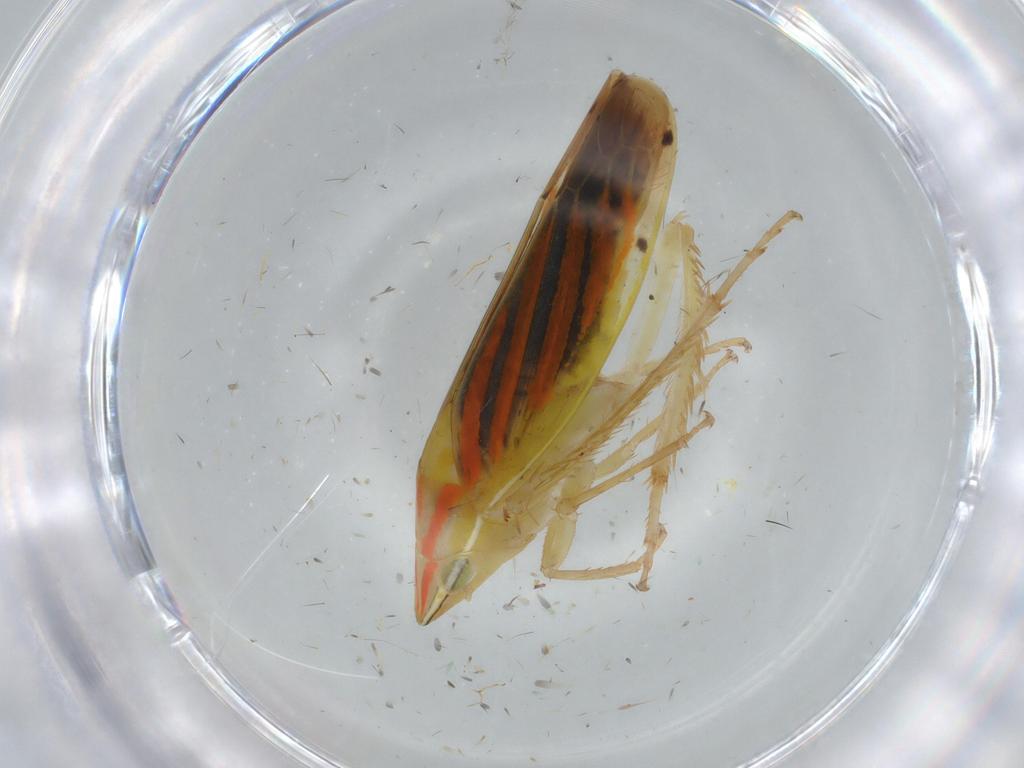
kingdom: Animalia
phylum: Arthropoda
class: Insecta
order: Hemiptera
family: Cicadellidae
